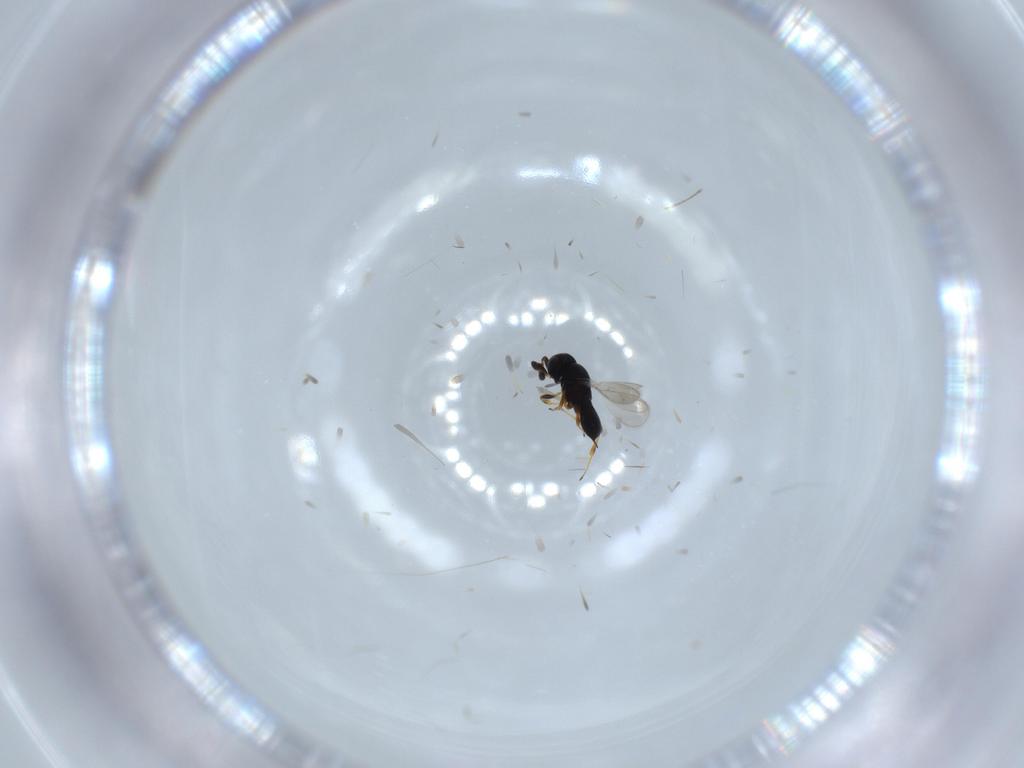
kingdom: Animalia
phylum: Arthropoda
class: Insecta
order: Hymenoptera
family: Scelionidae
